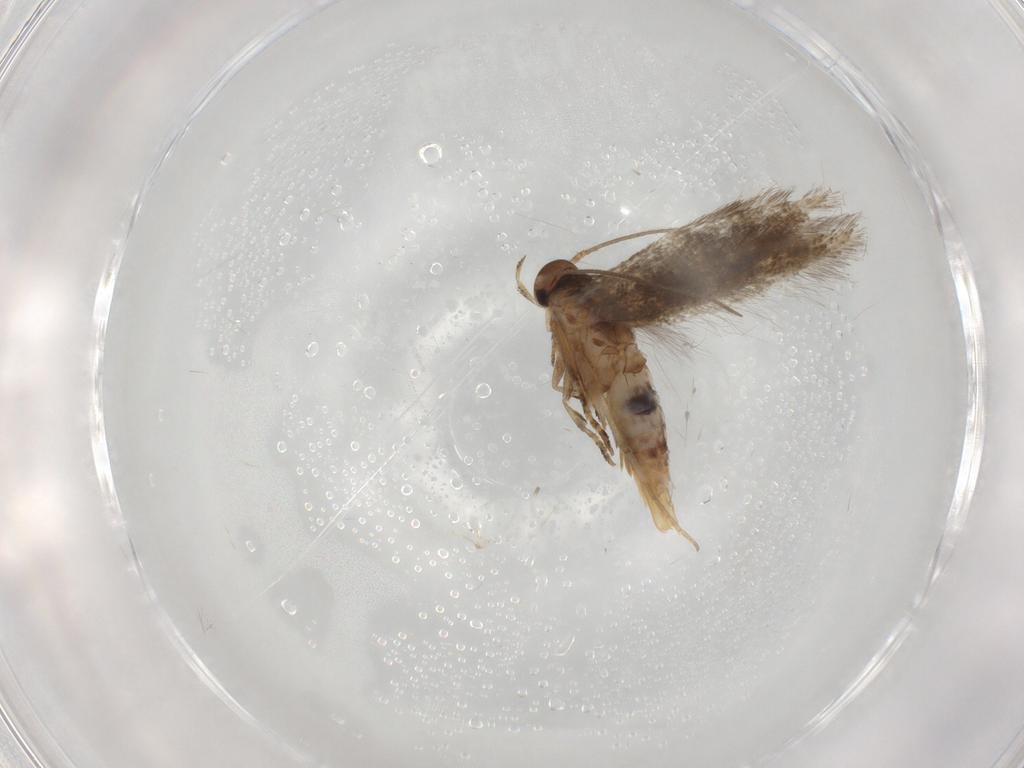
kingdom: Animalia
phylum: Arthropoda
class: Insecta
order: Lepidoptera
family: Elachistidae
